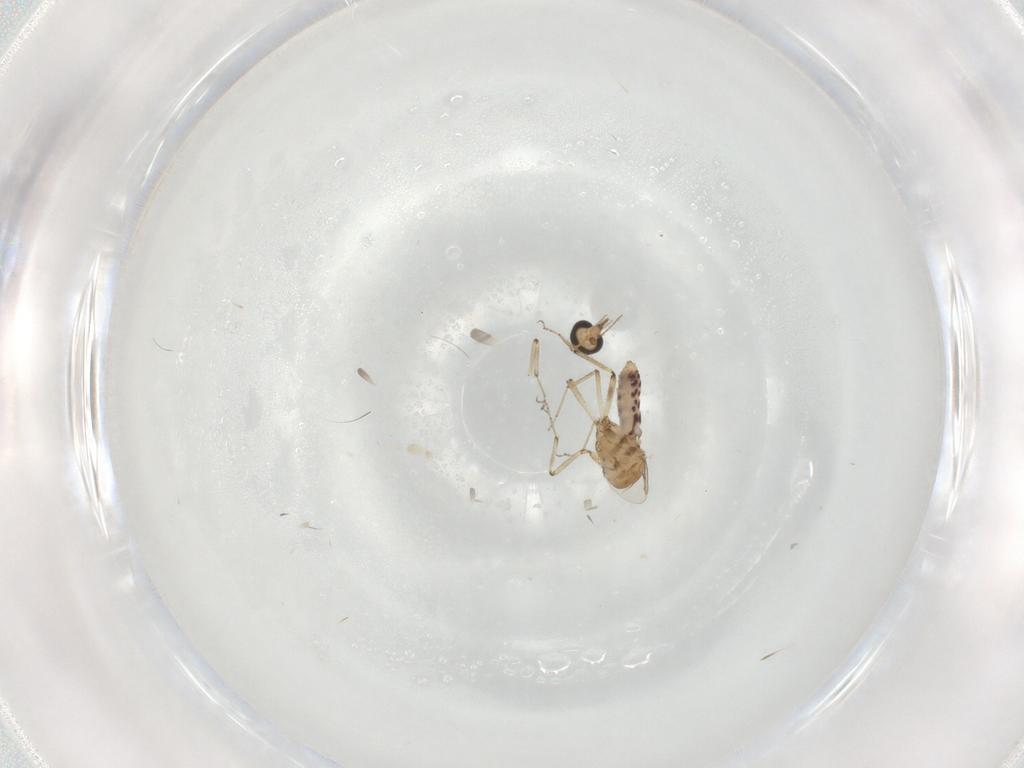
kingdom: Animalia
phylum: Arthropoda
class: Insecta
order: Diptera
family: Ceratopogonidae
